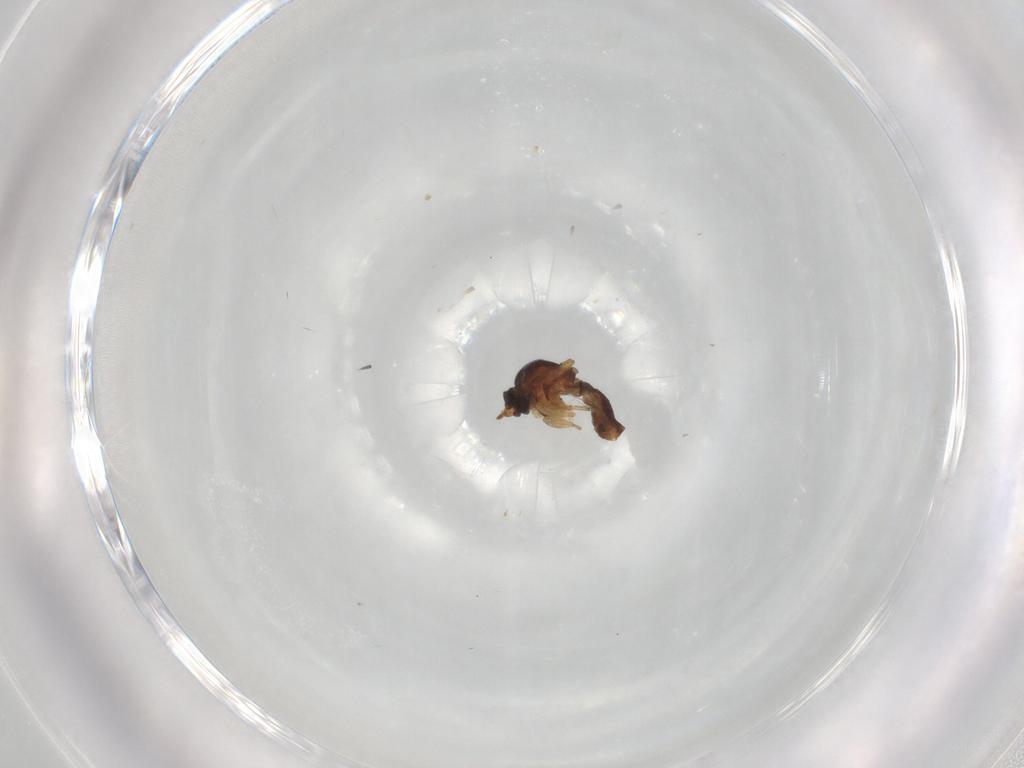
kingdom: Animalia
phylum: Arthropoda
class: Insecta
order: Diptera
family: Ceratopogonidae
